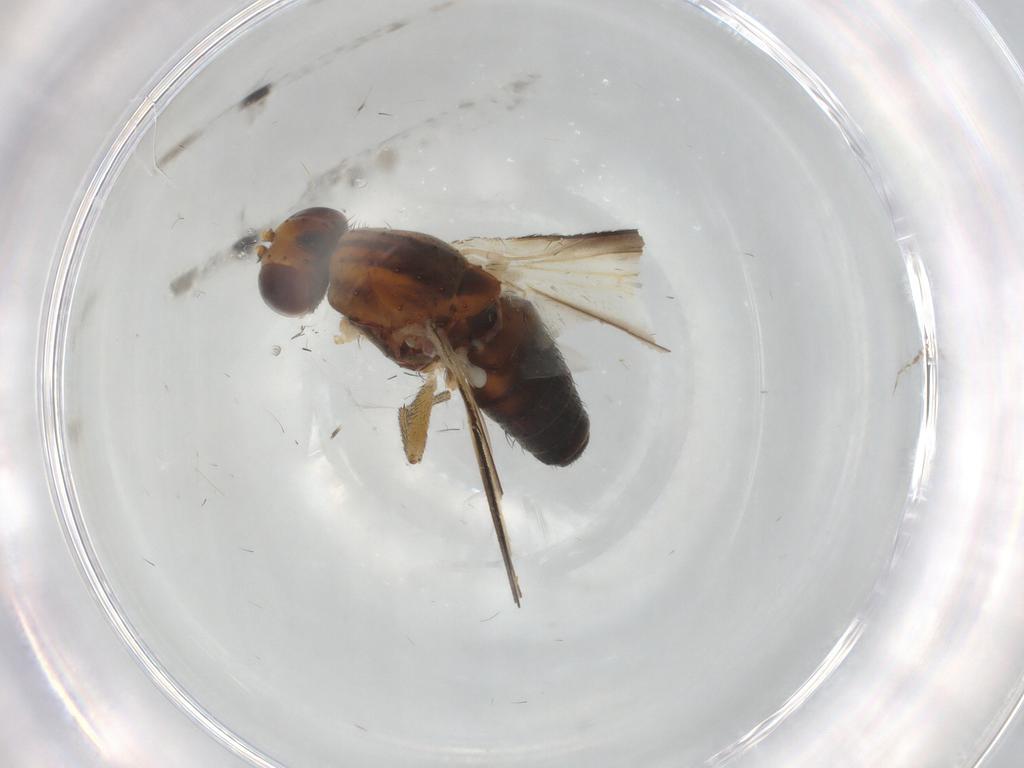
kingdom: Animalia
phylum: Arthropoda
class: Insecta
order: Diptera
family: Heleomyzidae
